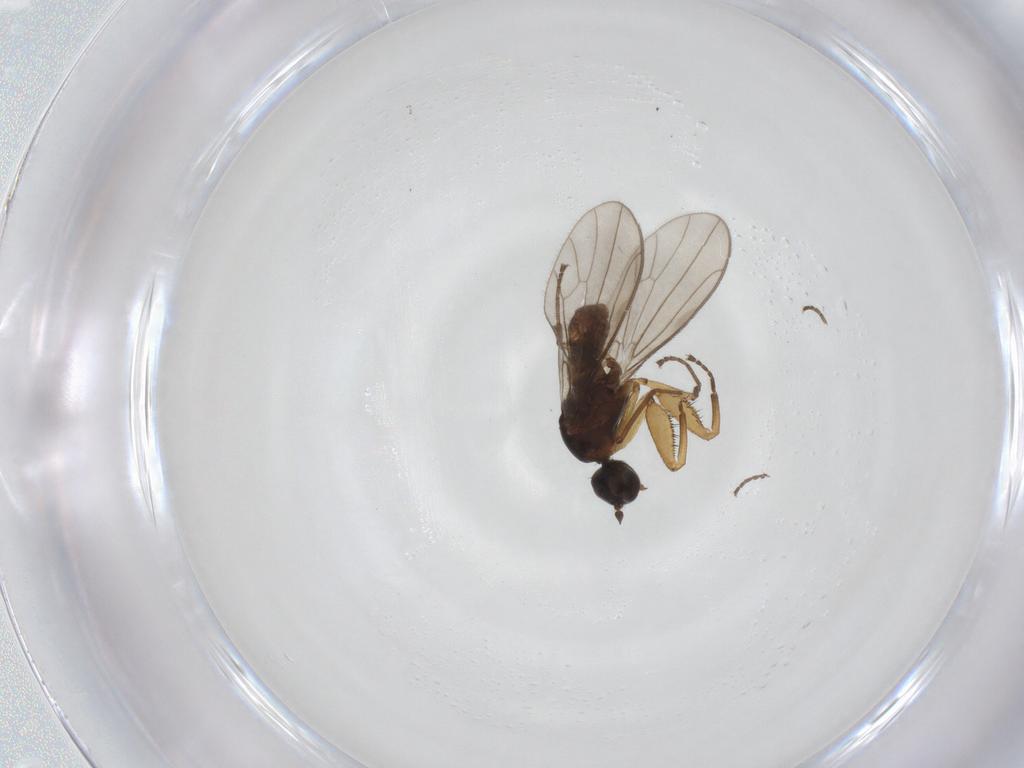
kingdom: Animalia
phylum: Arthropoda
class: Insecta
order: Diptera
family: Empididae
